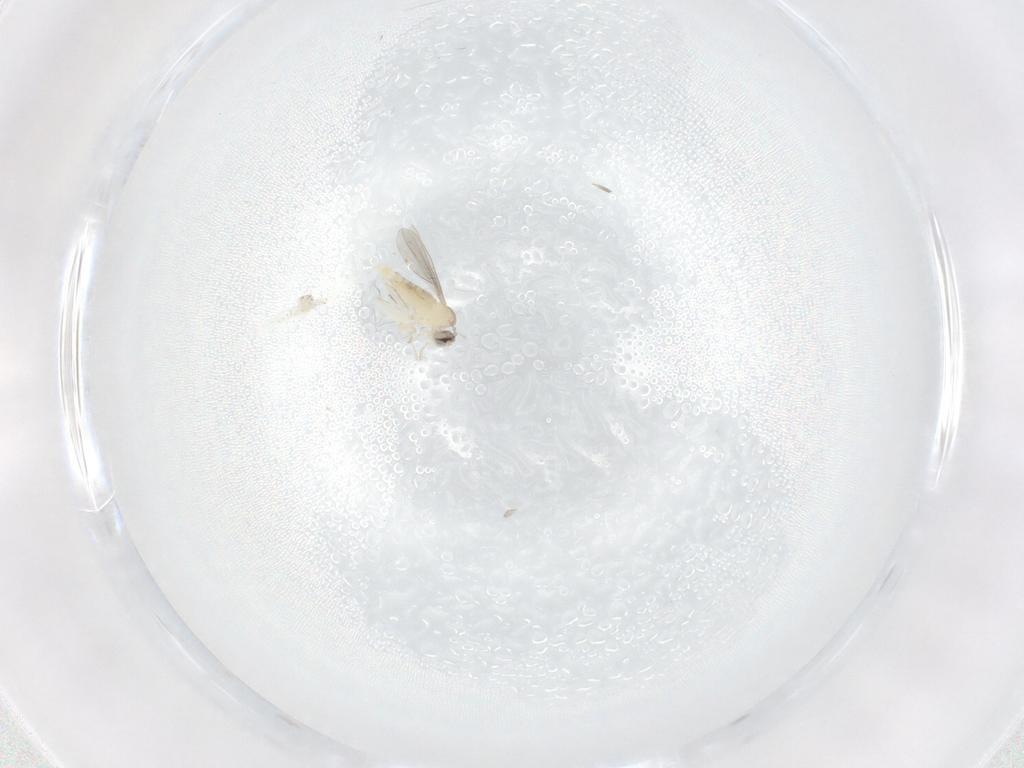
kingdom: Animalia
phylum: Arthropoda
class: Insecta
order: Diptera
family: Cecidomyiidae
